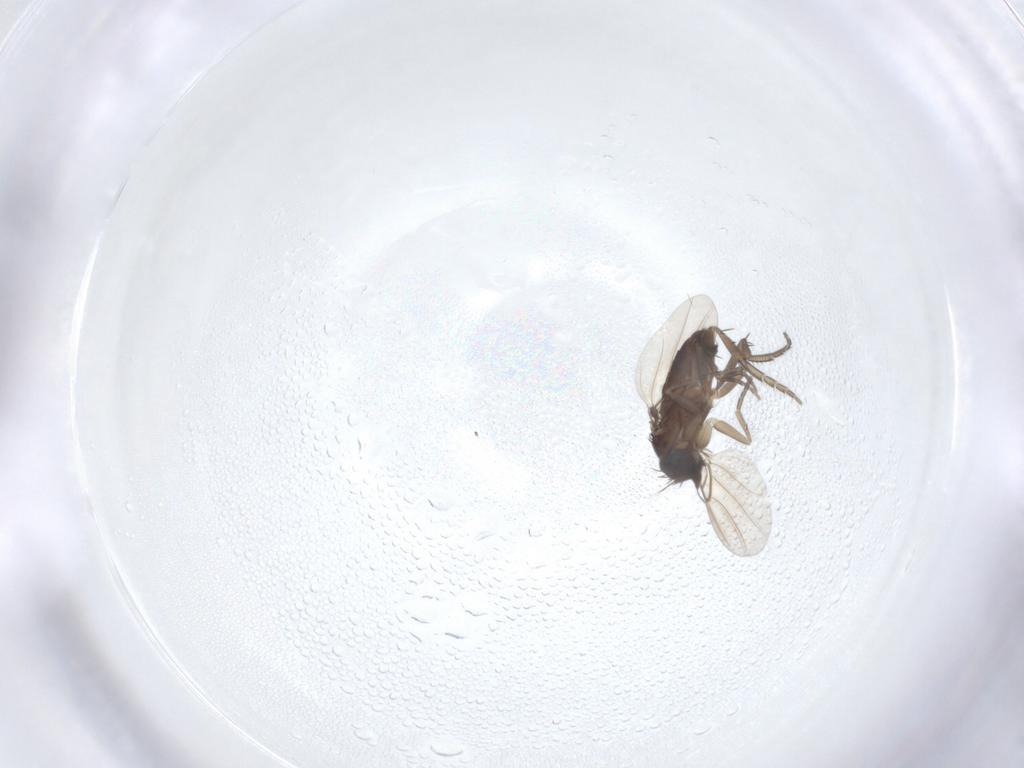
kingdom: Animalia
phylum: Arthropoda
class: Insecta
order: Diptera
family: Phoridae
